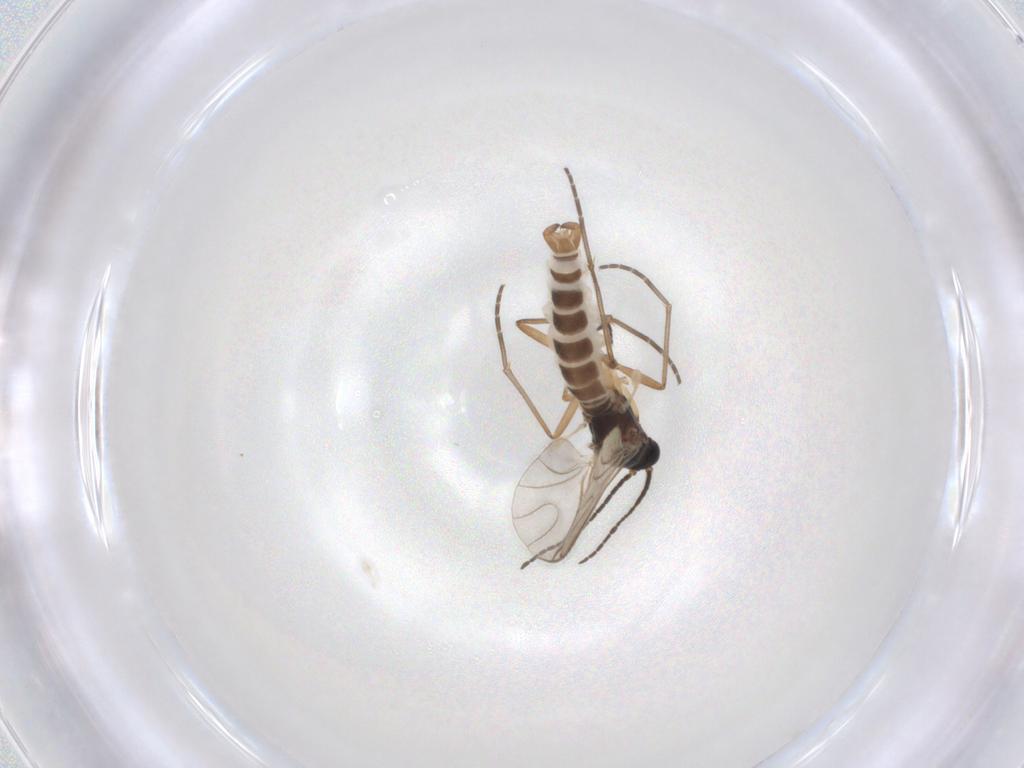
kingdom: Animalia
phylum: Arthropoda
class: Insecta
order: Diptera
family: Sciaridae
